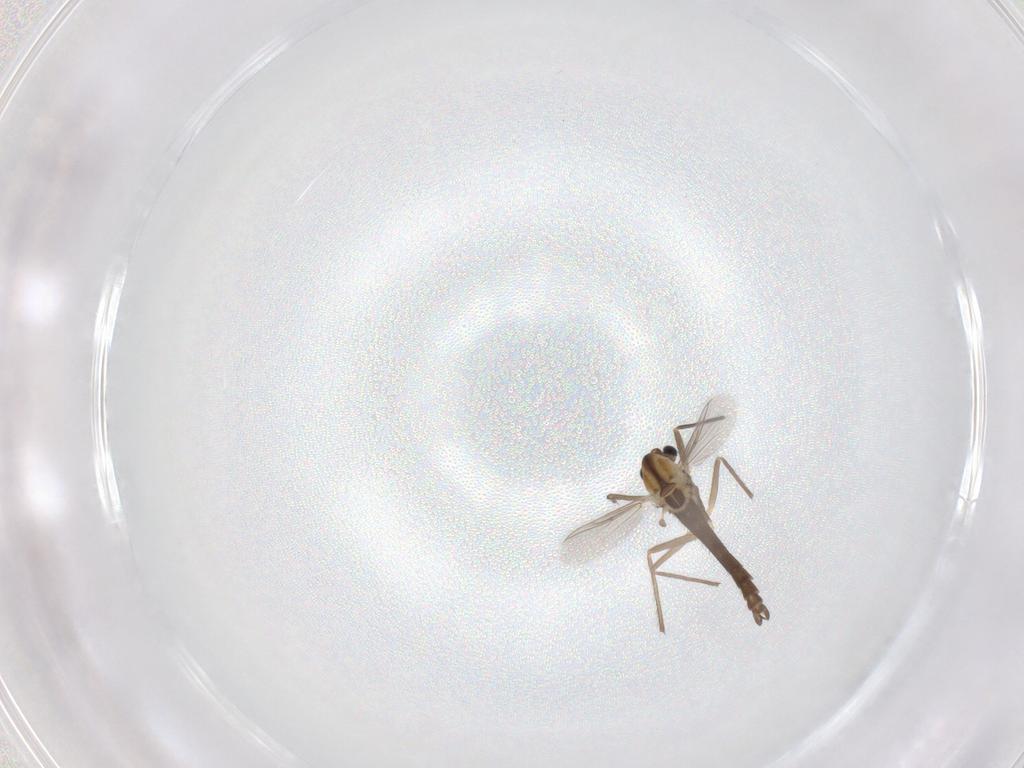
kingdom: Animalia
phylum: Arthropoda
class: Insecta
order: Diptera
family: Chironomidae
